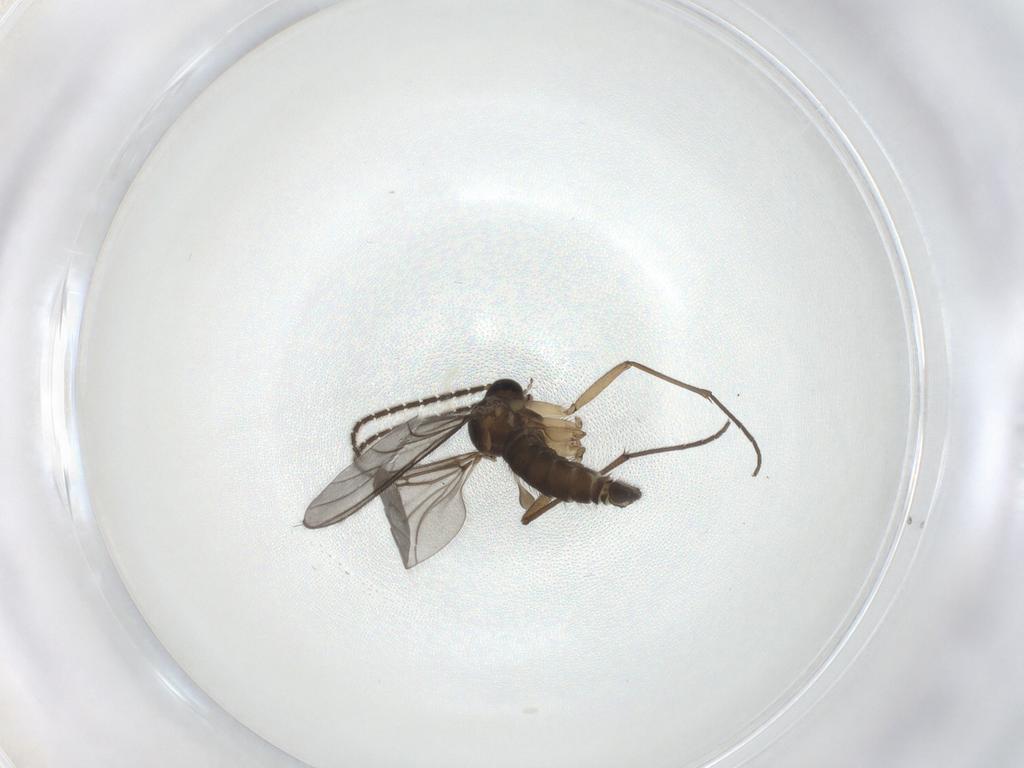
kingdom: Animalia
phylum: Arthropoda
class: Insecta
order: Diptera
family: Sciaridae
